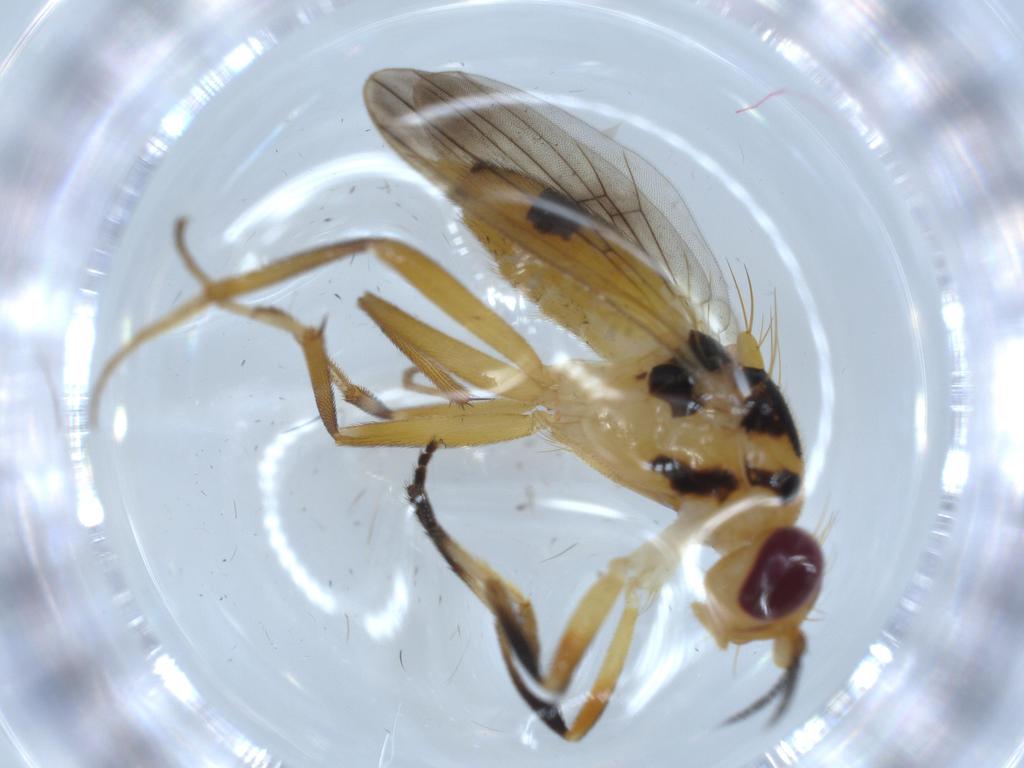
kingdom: Animalia
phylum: Arthropoda
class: Insecta
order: Diptera
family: Clusiidae
